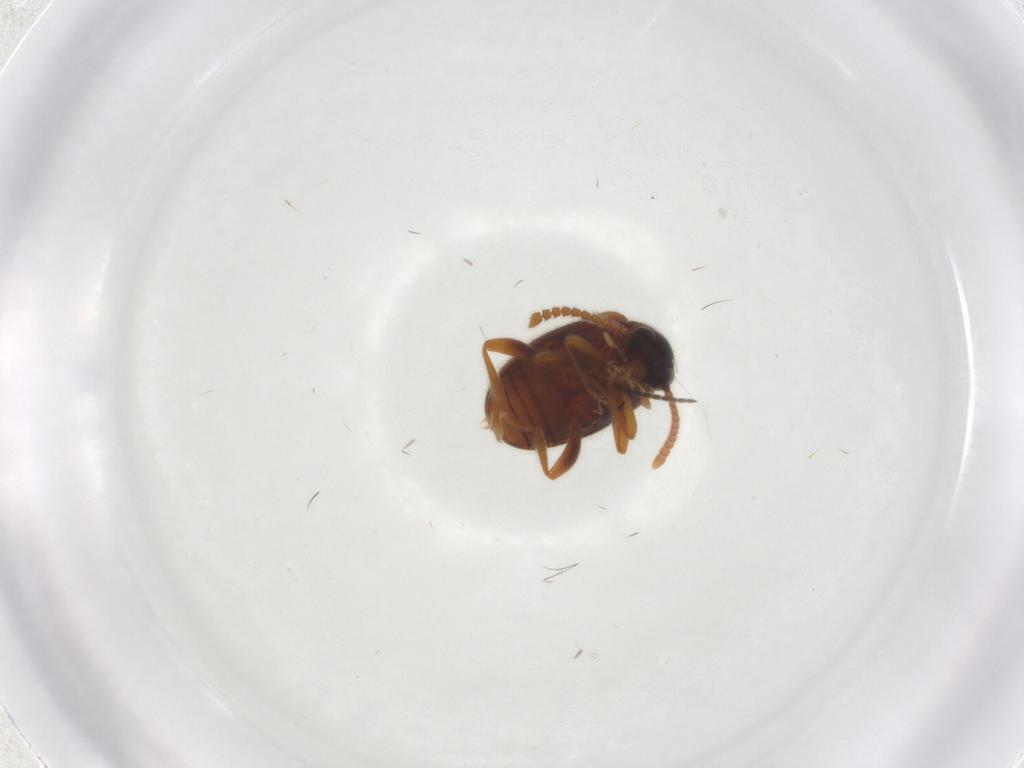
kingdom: Animalia
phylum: Arthropoda
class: Insecta
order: Coleoptera
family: Aderidae
